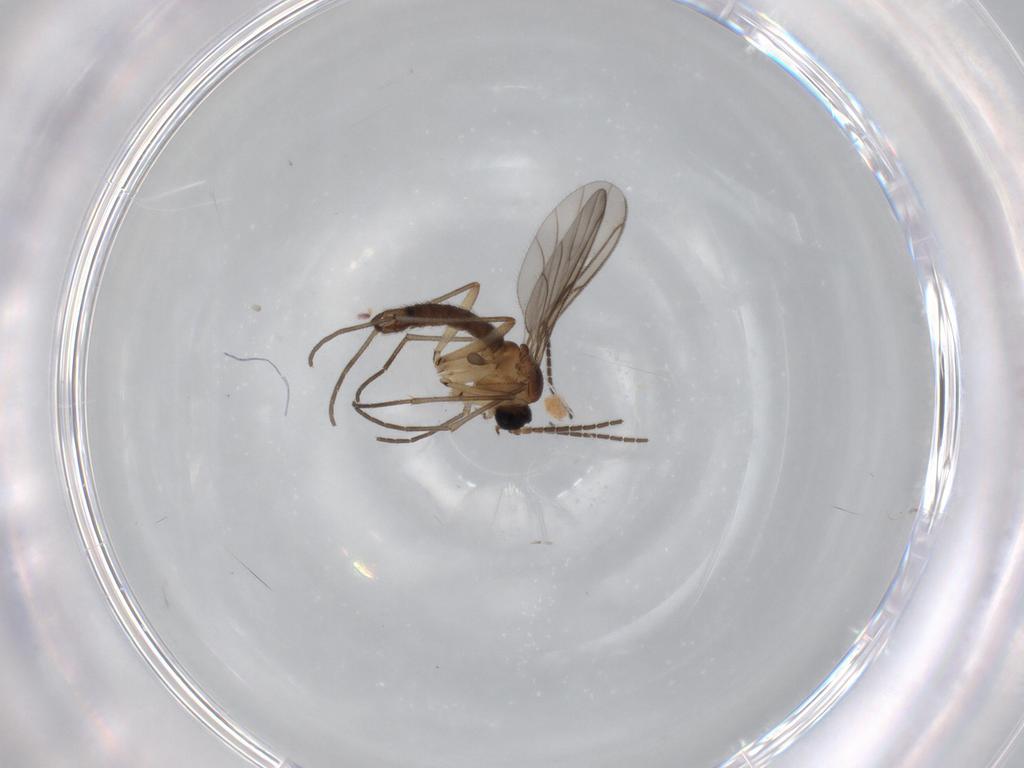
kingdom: Animalia
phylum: Arthropoda
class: Insecta
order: Diptera
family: Sciaridae
